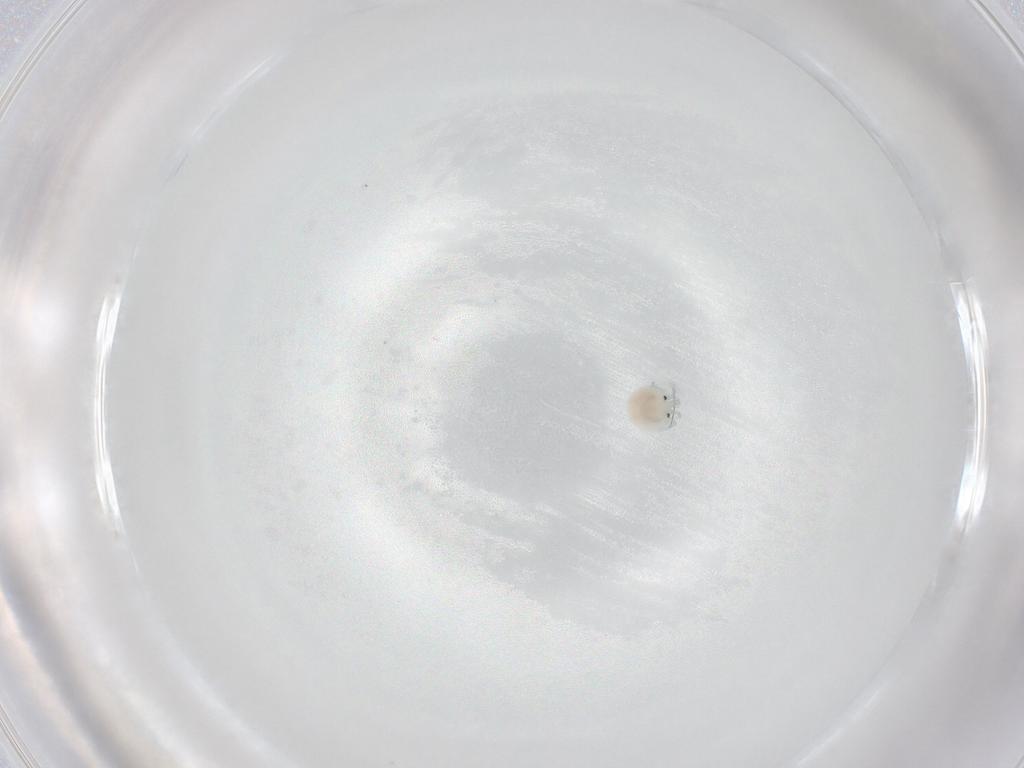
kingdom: Animalia
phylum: Arthropoda
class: Arachnida
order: Trombidiformes
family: Arrenuridae
